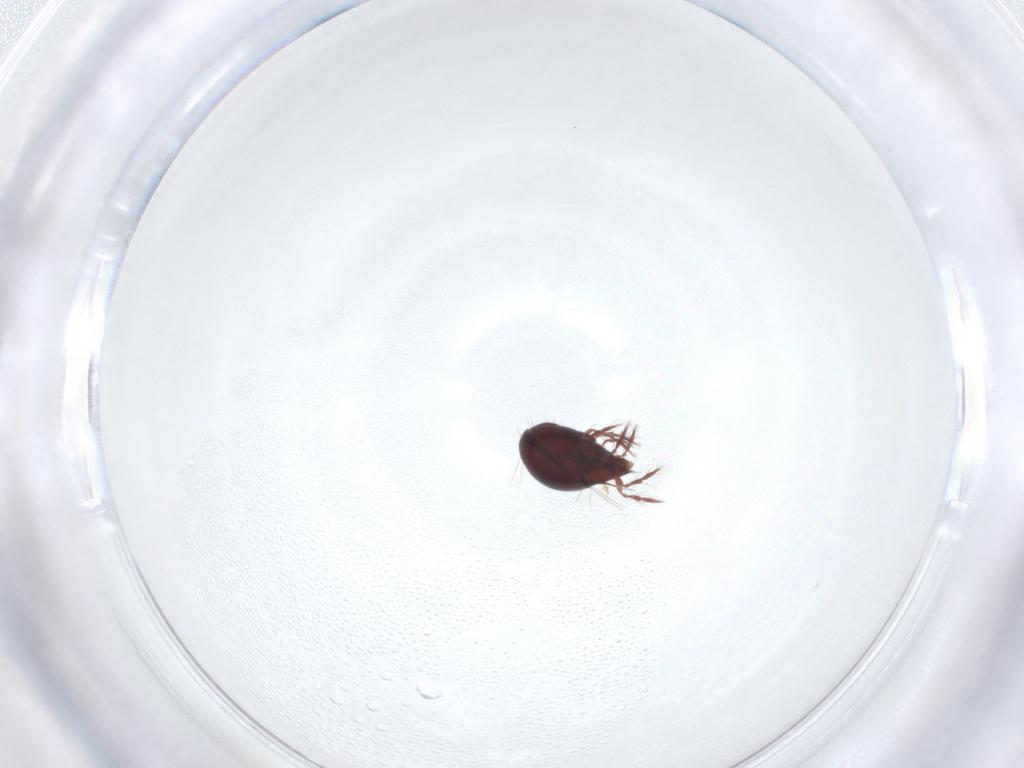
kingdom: Animalia
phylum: Arthropoda
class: Arachnida
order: Sarcoptiformes
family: Ceratoppiidae
